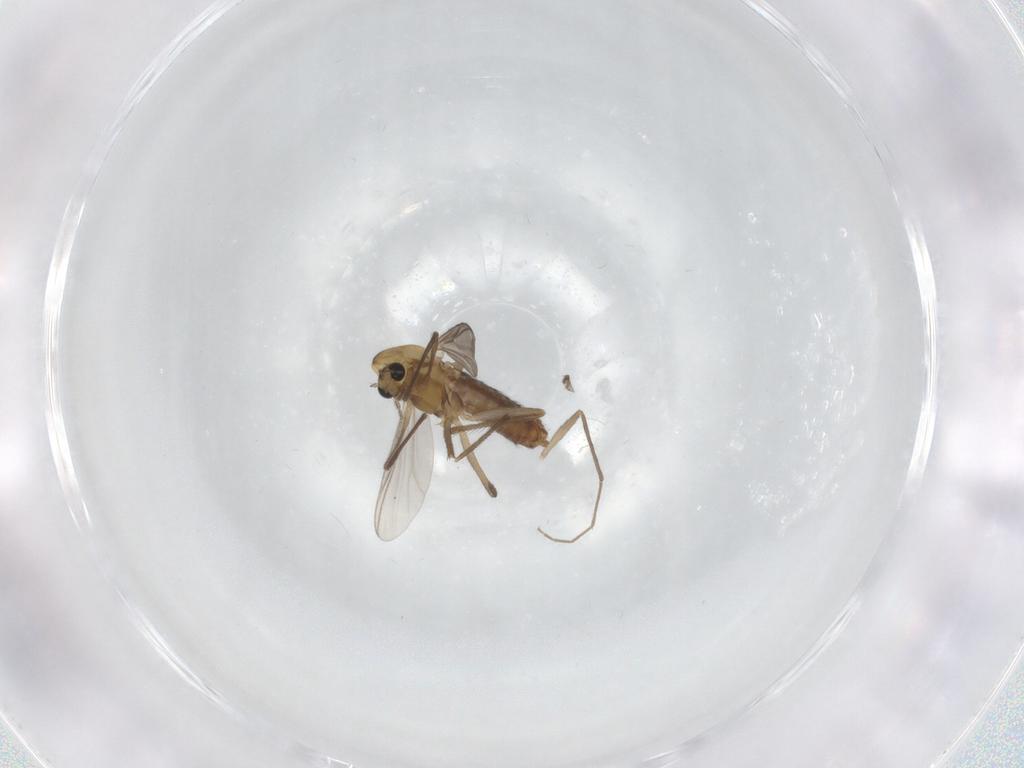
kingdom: Animalia
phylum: Arthropoda
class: Insecta
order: Diptera
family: Chironomidae
